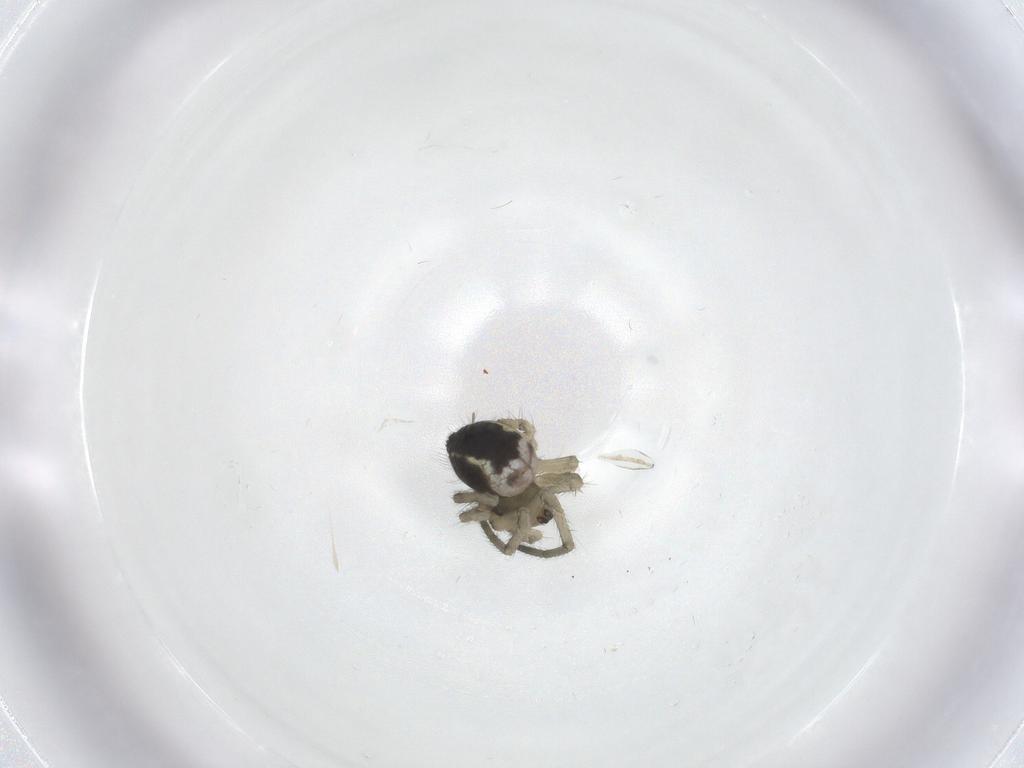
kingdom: Animalia
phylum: Arthropoda
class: Arachnida
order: Araneae
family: Tetragnathidae
